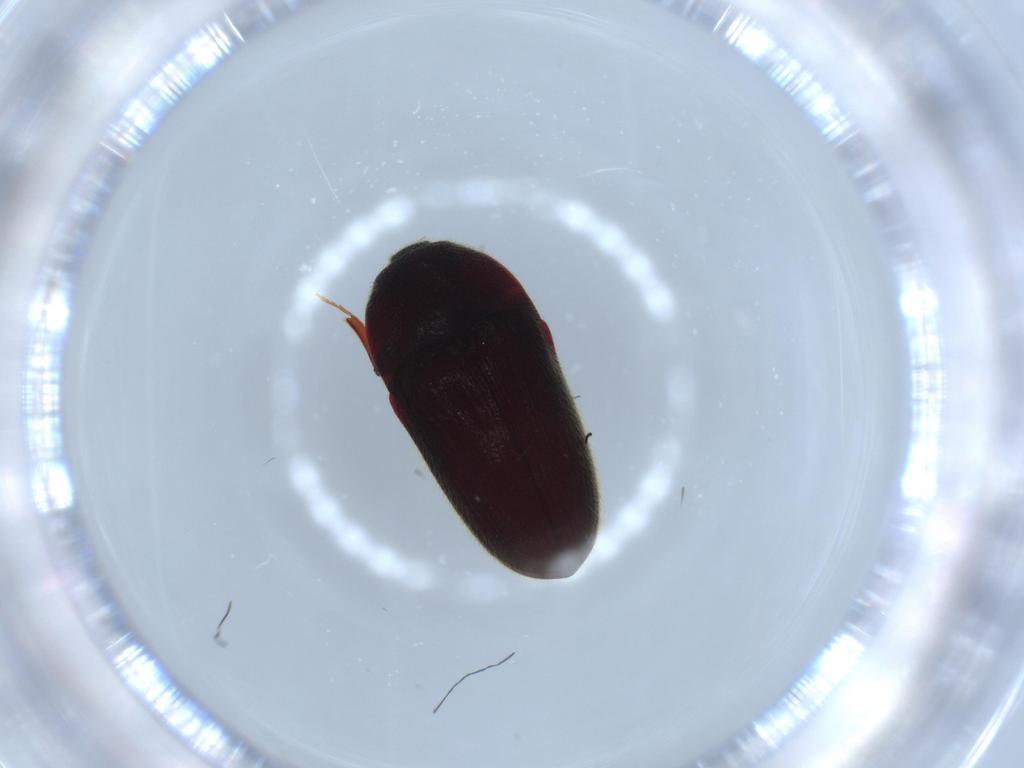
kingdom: Animalia
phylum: Arthropoda
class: Insecta
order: Coleoptera
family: Throscidae
